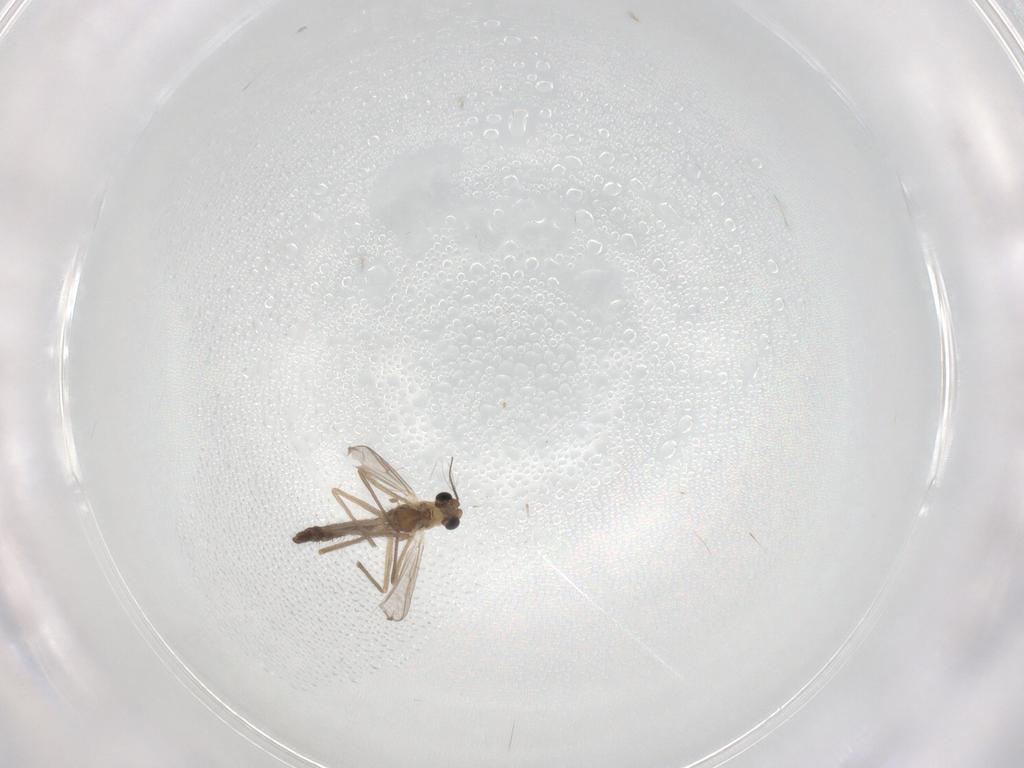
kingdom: Animalia
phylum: Arthropoda
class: Insecta
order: Diptera
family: Chironomidae
